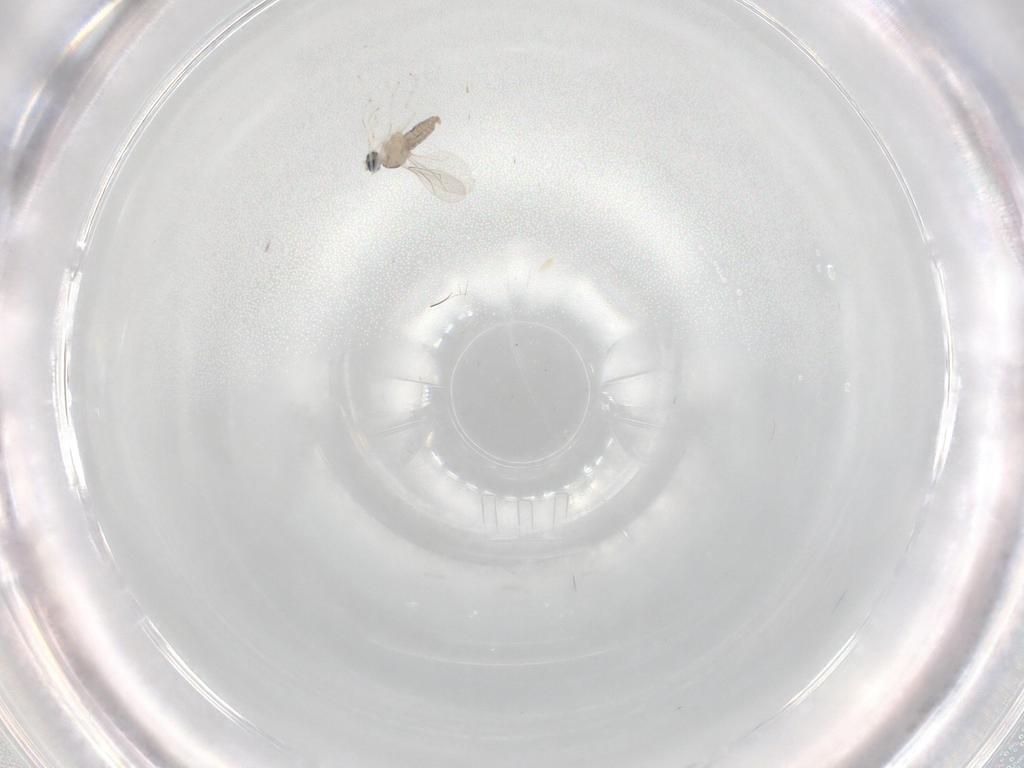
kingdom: Animalia
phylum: Arthropoda
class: Insecta
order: Diptera
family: Cecidomyiidae
